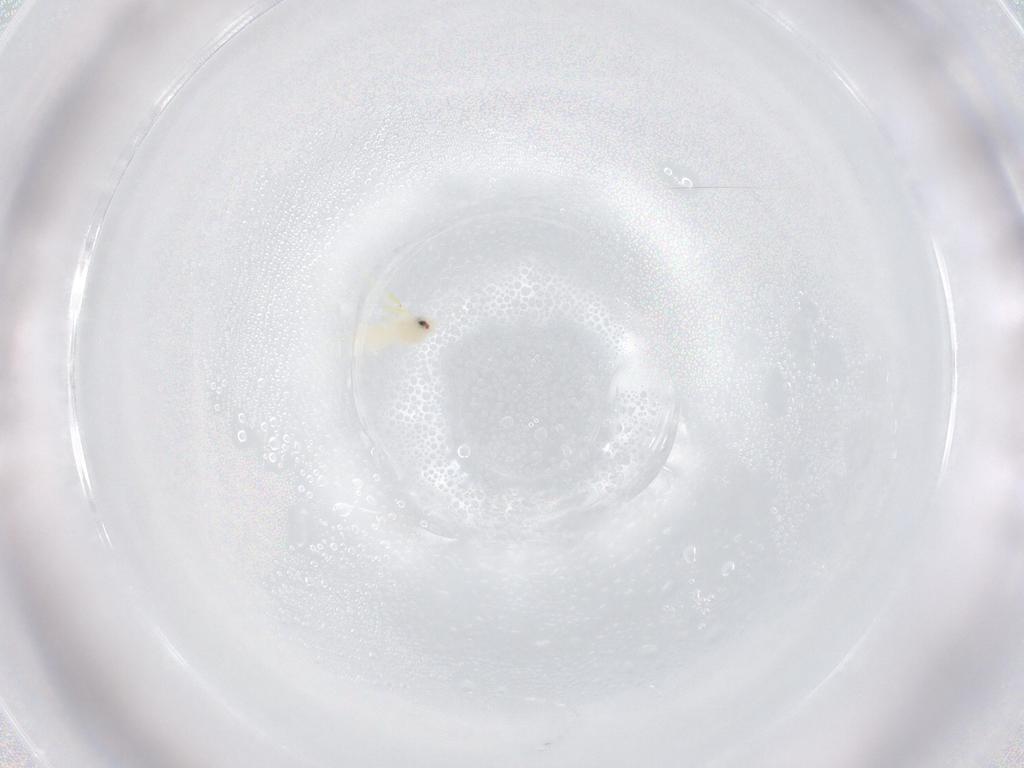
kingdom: Animalia
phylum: Arthropoda
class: Insecta
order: Hemiptera
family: Aleyrodidae
